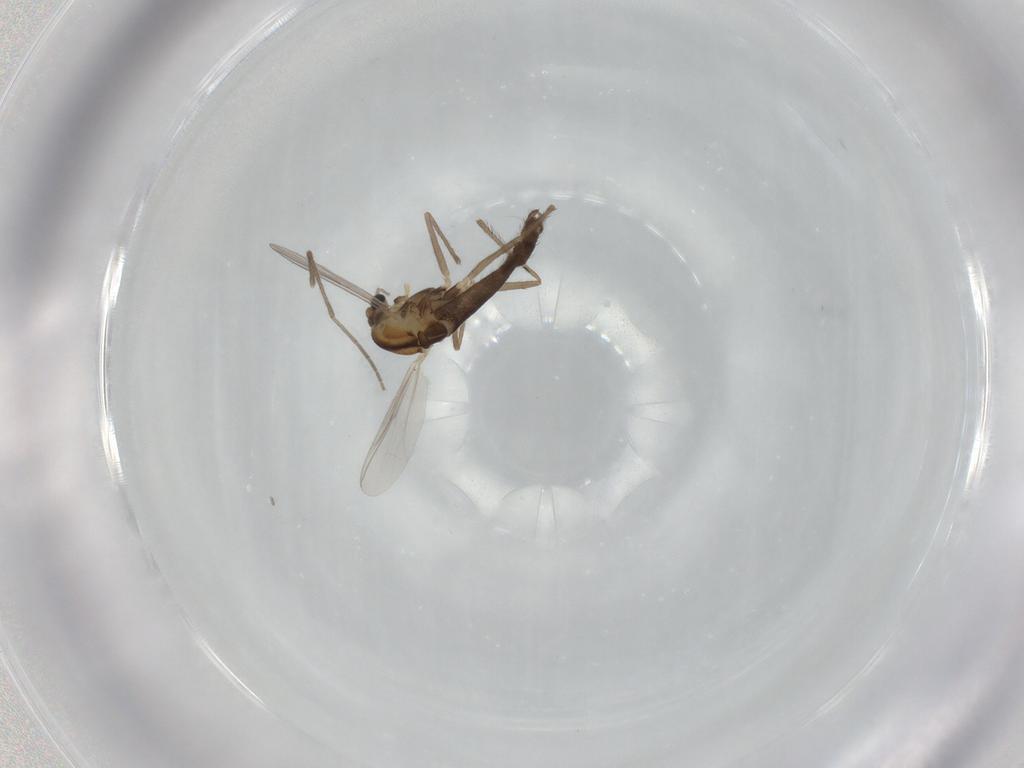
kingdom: Animalia
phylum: Arthropoda
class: Insecta
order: Diptera
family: Chironomidae
